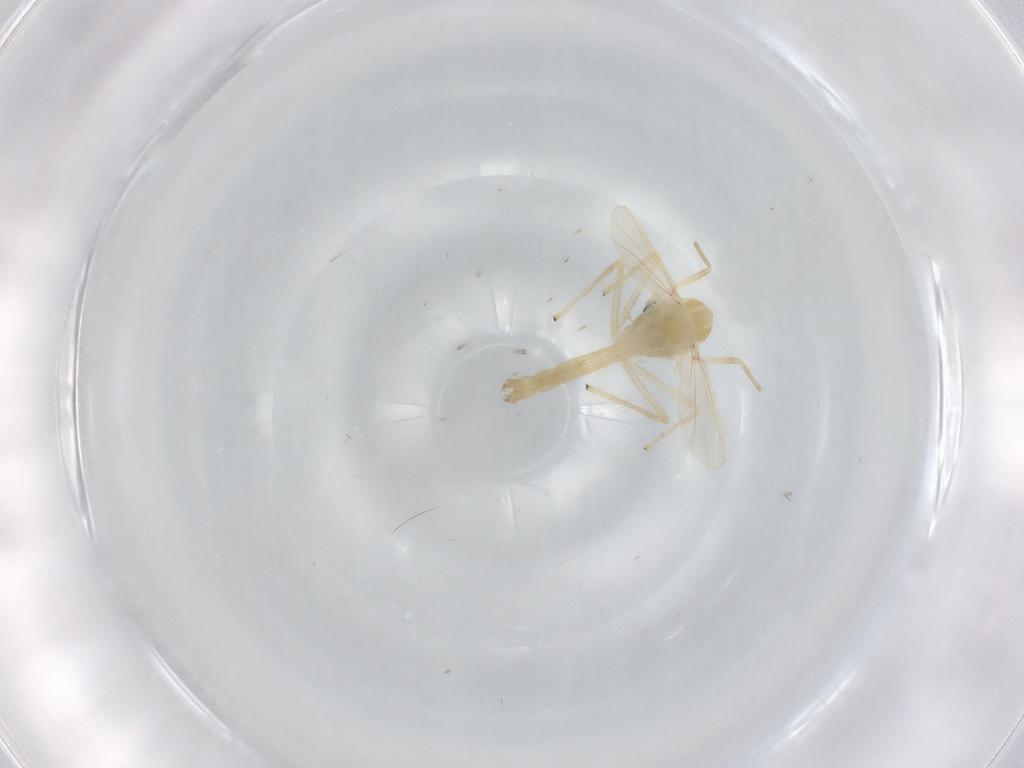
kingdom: Animalia
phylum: Arthropoda
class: Insecta
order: Diptera
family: Chironomidae
